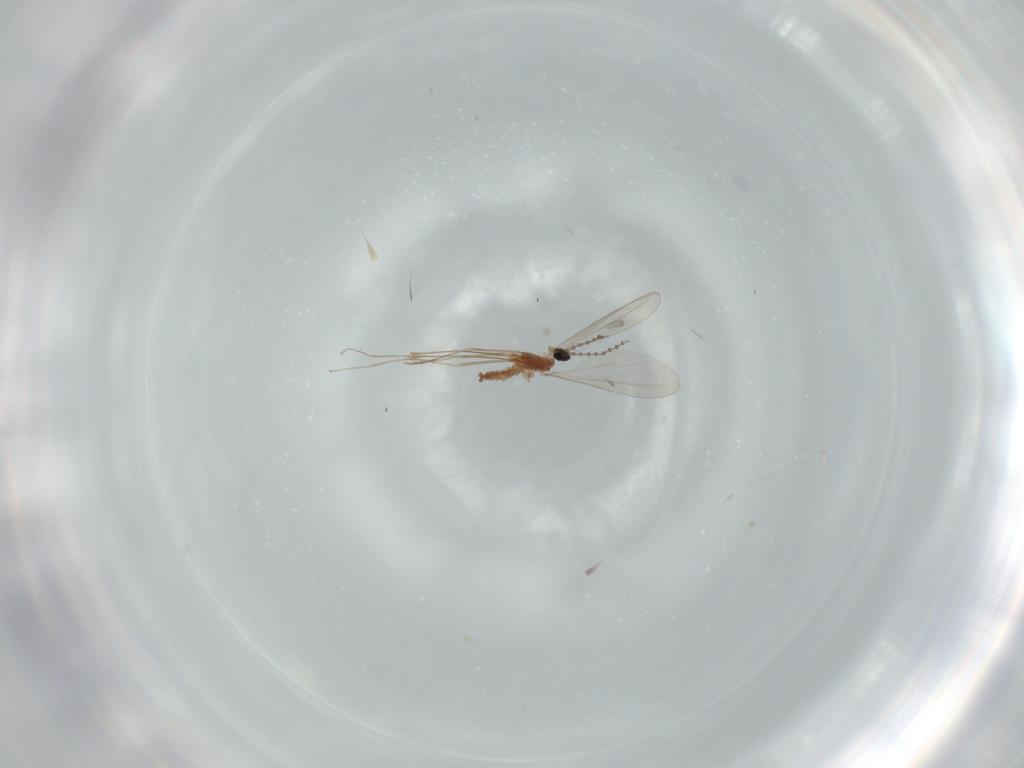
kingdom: Animalia
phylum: Arthropoda
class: Insecta
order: Diptera
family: Cecidomyiidae
